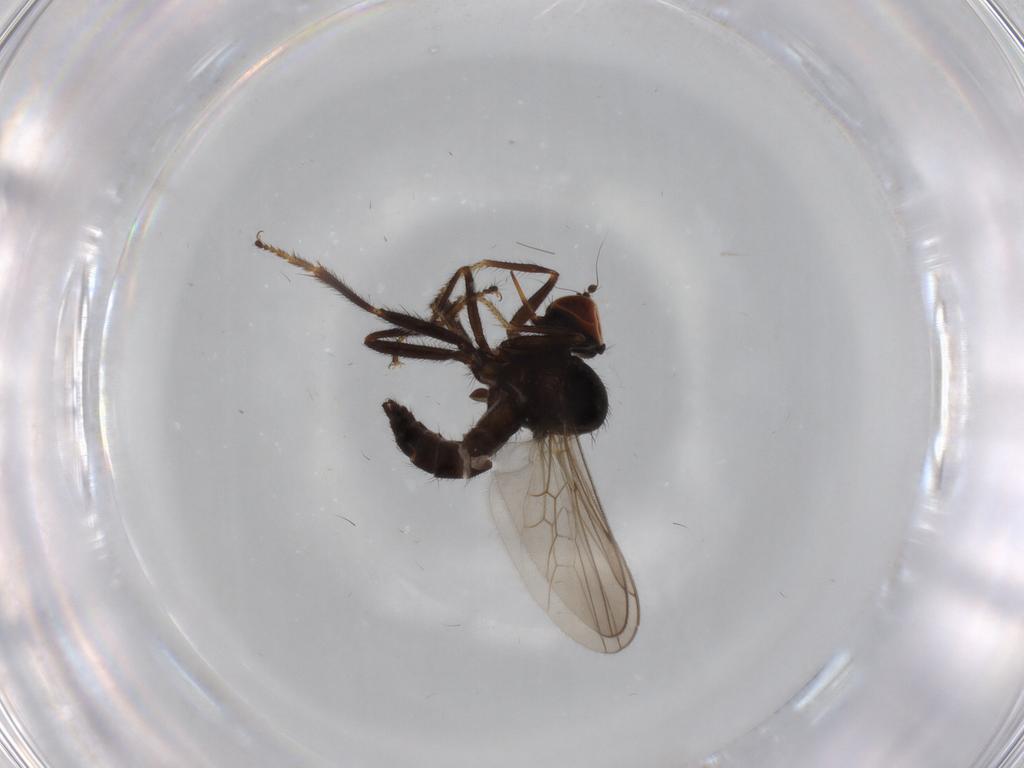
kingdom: Animalia
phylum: Arthropoda
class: Insecta
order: Diptera
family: Hybotidae
